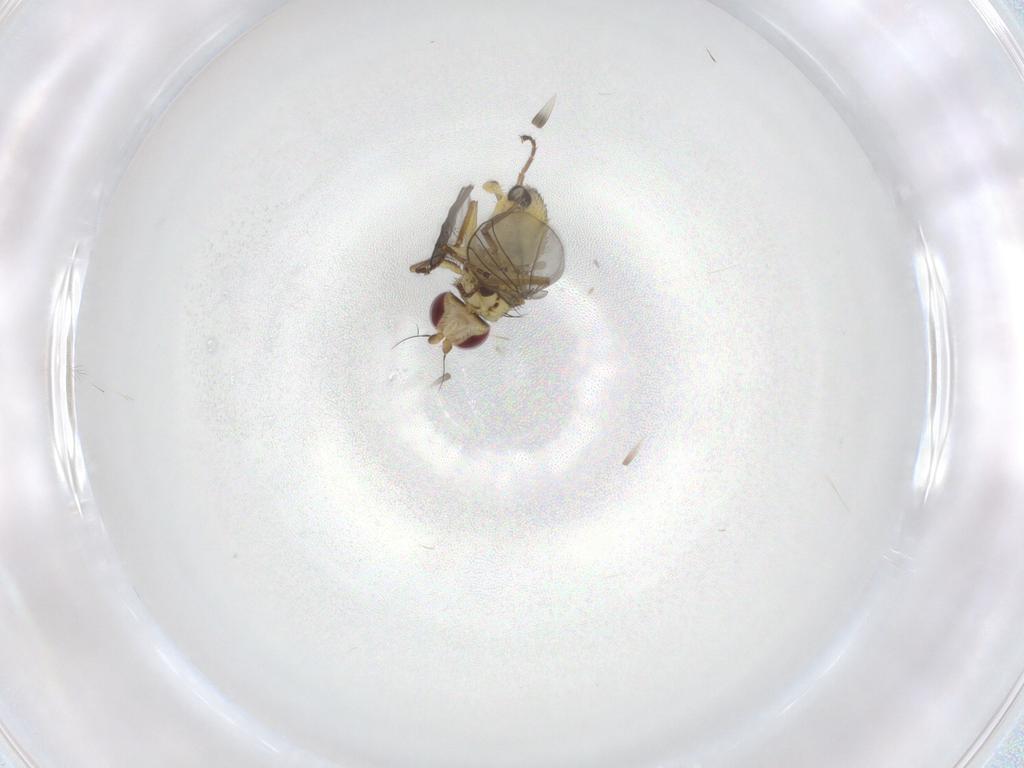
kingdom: Animalia
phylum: Arthropoda
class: Insecta
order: Diptera
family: Agromyzidae
